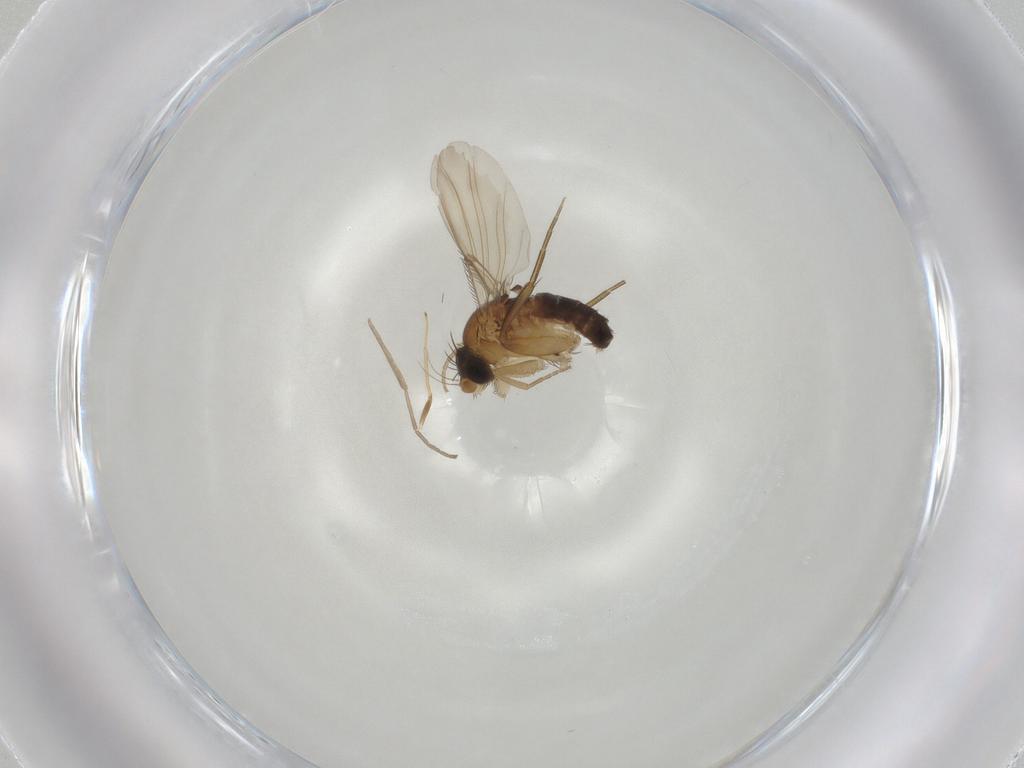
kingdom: Animalia
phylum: Arthropoda
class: Insecta
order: Diptera
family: Phoridae
